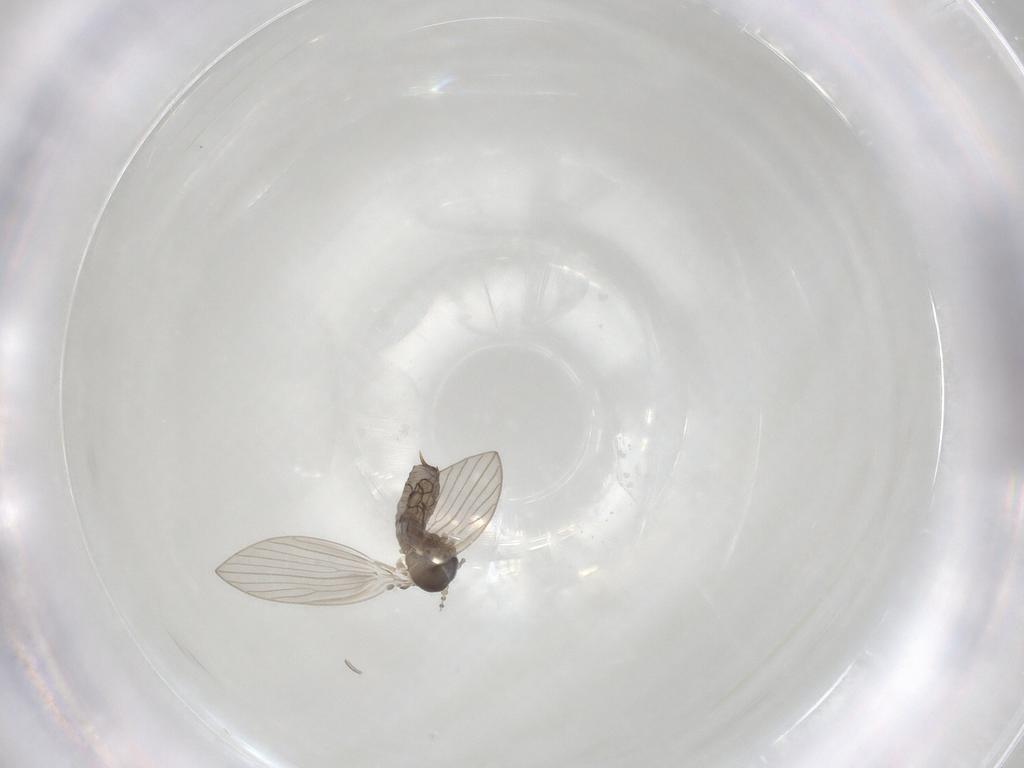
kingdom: Animalia
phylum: Arthropoda
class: Insecta
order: Diptera
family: Psychodidae
